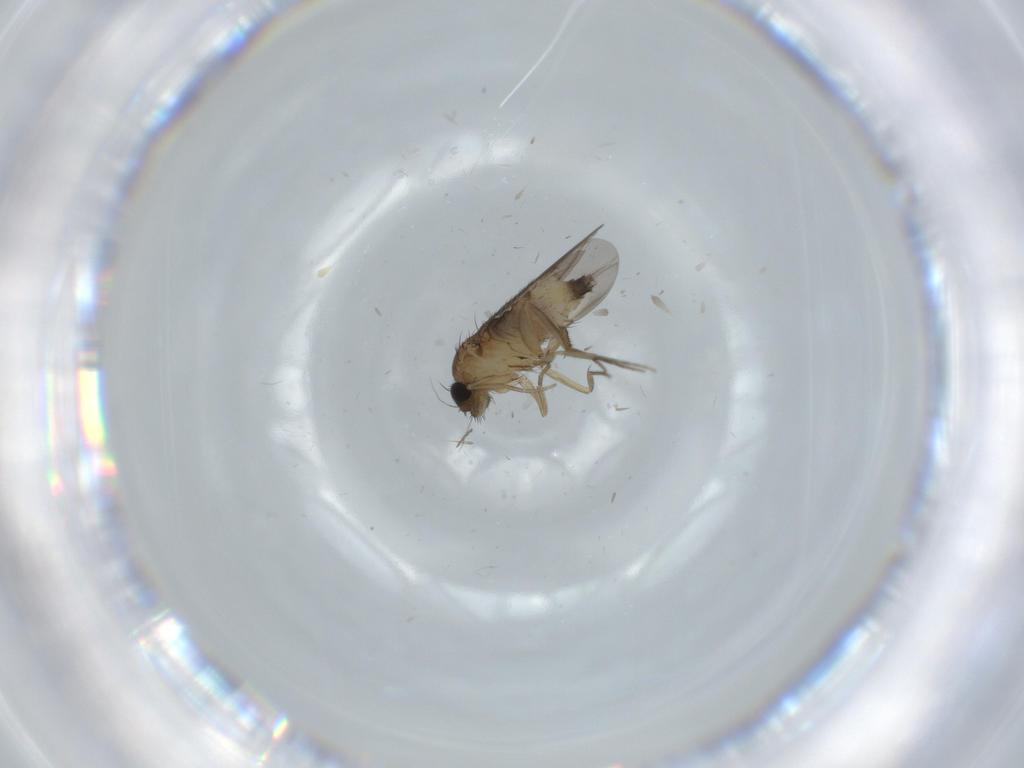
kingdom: Animalia
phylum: Arthropoda
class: Insecta
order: Diptera
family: Phoridae
